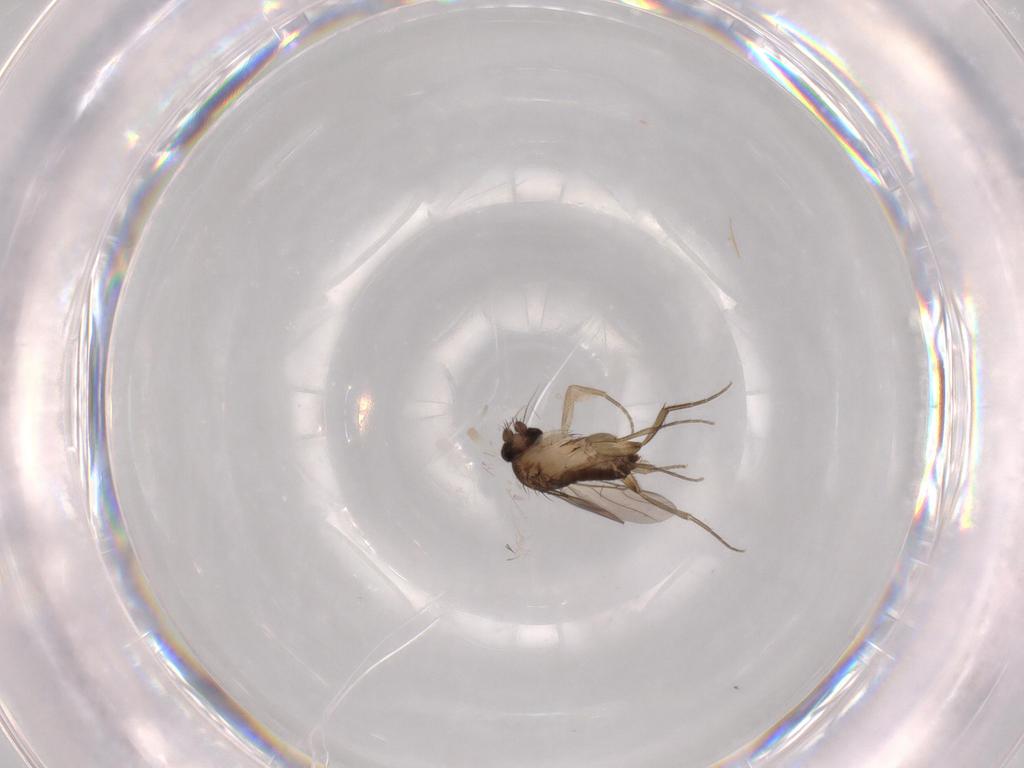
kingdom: Animalia
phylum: Arthropoda
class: Insecta
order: Diptera
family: Phoridae
